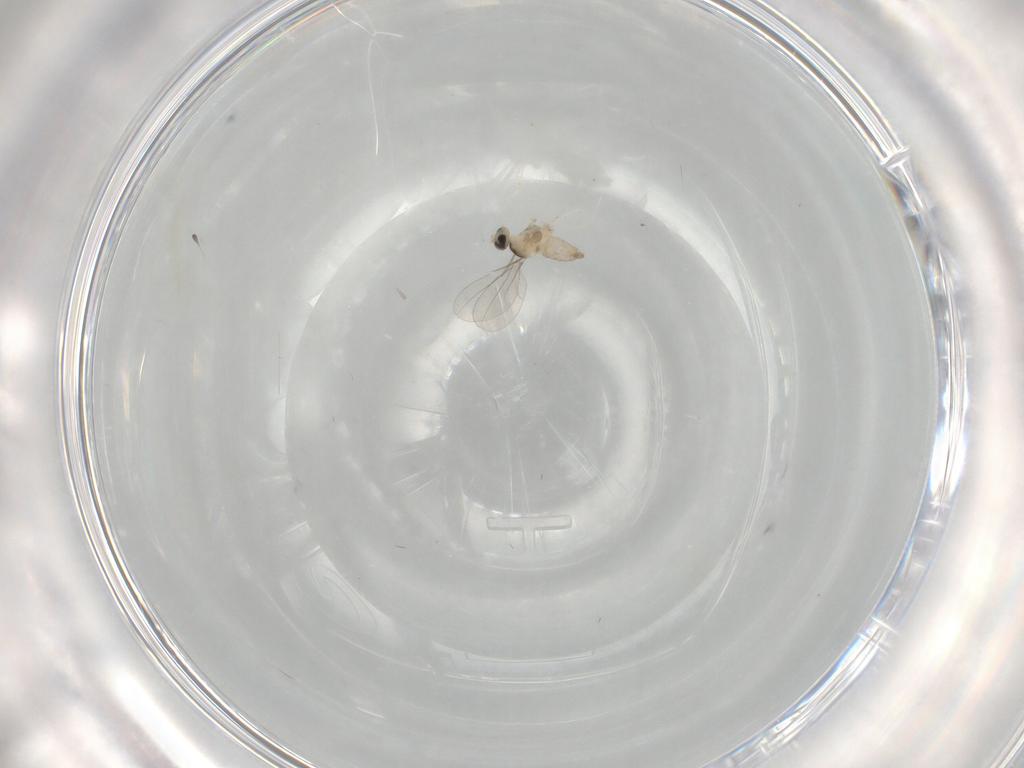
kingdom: Animalia
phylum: Arthropoda
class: Insecta
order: Diptera
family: Cecidomyiidae
